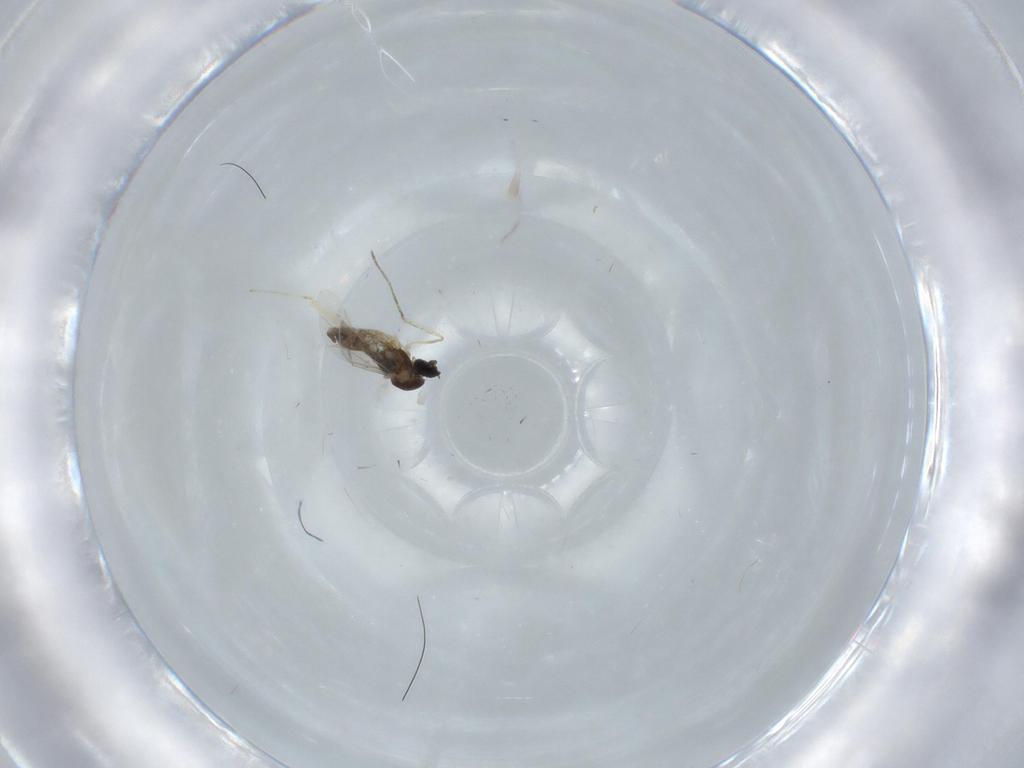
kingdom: Animalia
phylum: Arthropoda
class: Insecta
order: Diptera
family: Cecidomyiidae
